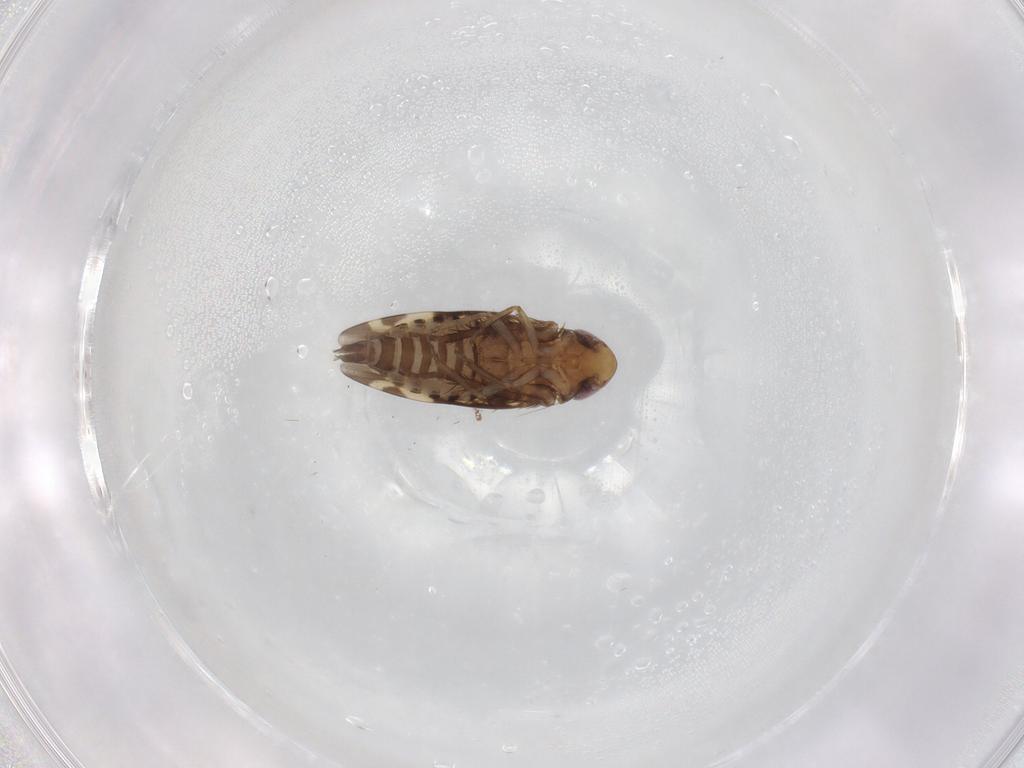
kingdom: Animalia
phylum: Arthropoda
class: Insecta
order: Hemiptera
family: Cicadellidae
